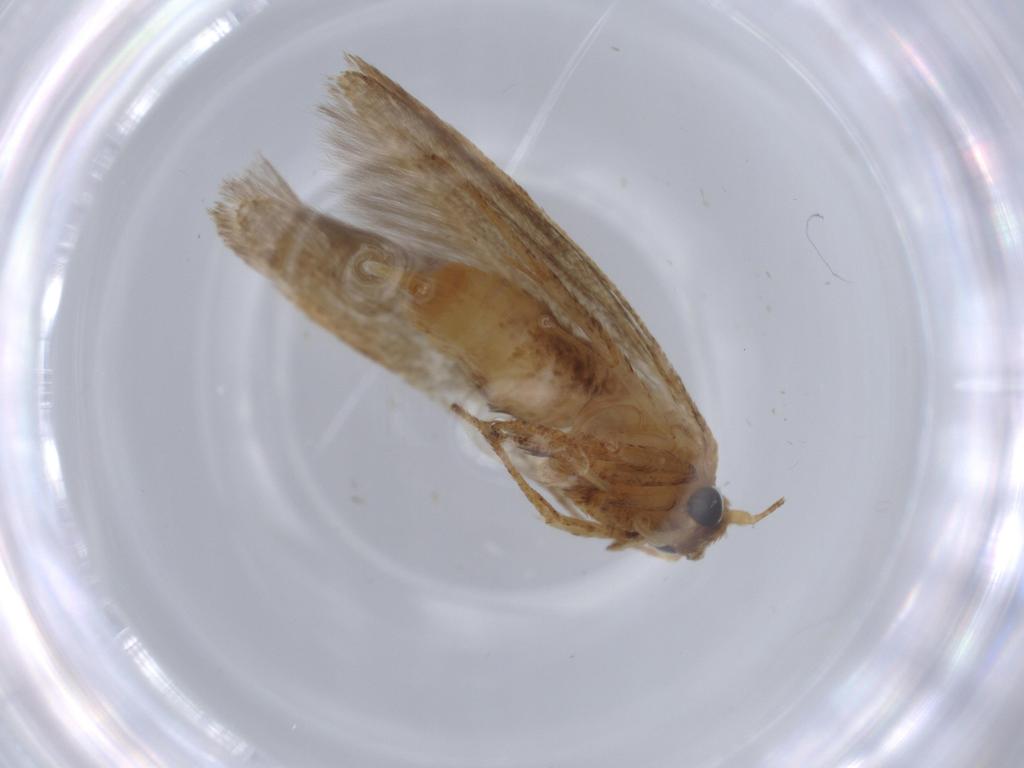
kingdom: Animalia
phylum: Arthropoda
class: Insecta
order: Lepidoptera
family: Blastobasidae
